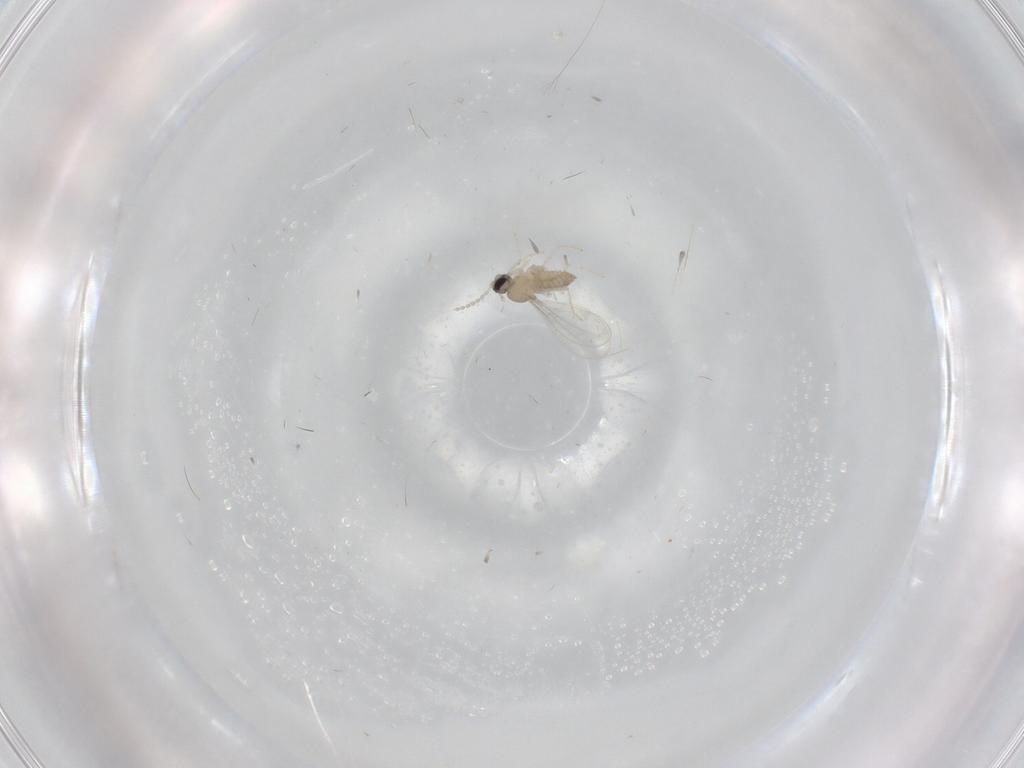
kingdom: Animalia
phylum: Arthropoda
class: Insecta
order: Diptera
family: Cecidomyiidae
